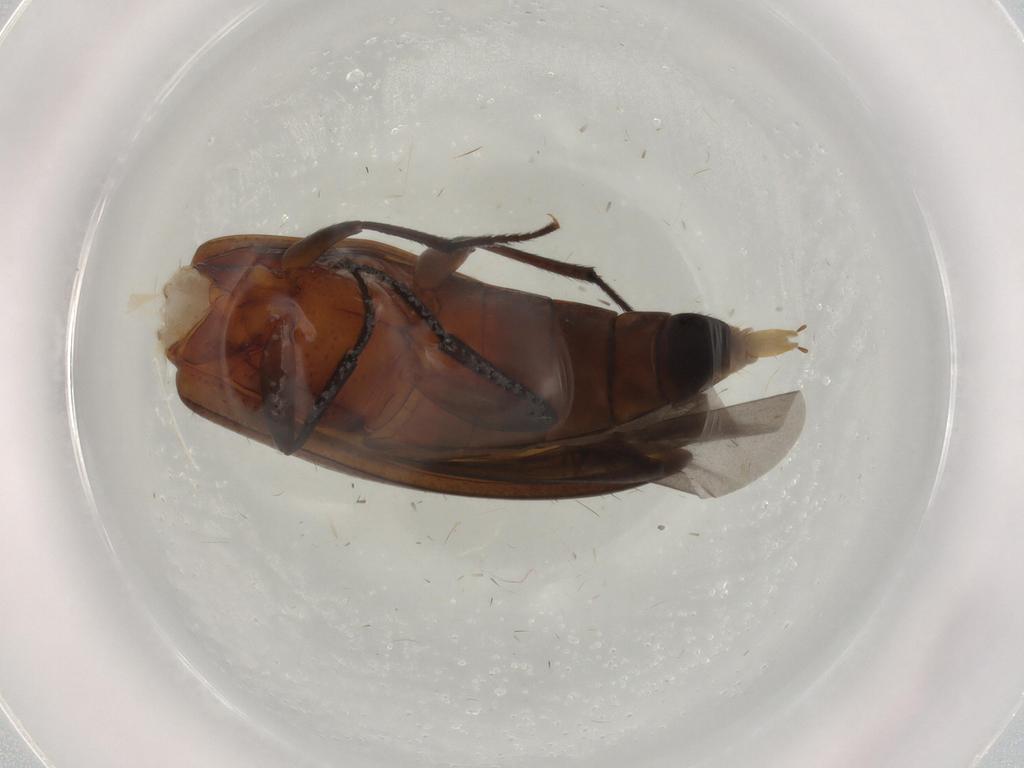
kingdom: Animalia
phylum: Arthropoda
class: Insecta
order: Coleoptera
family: Tenebrionidae
